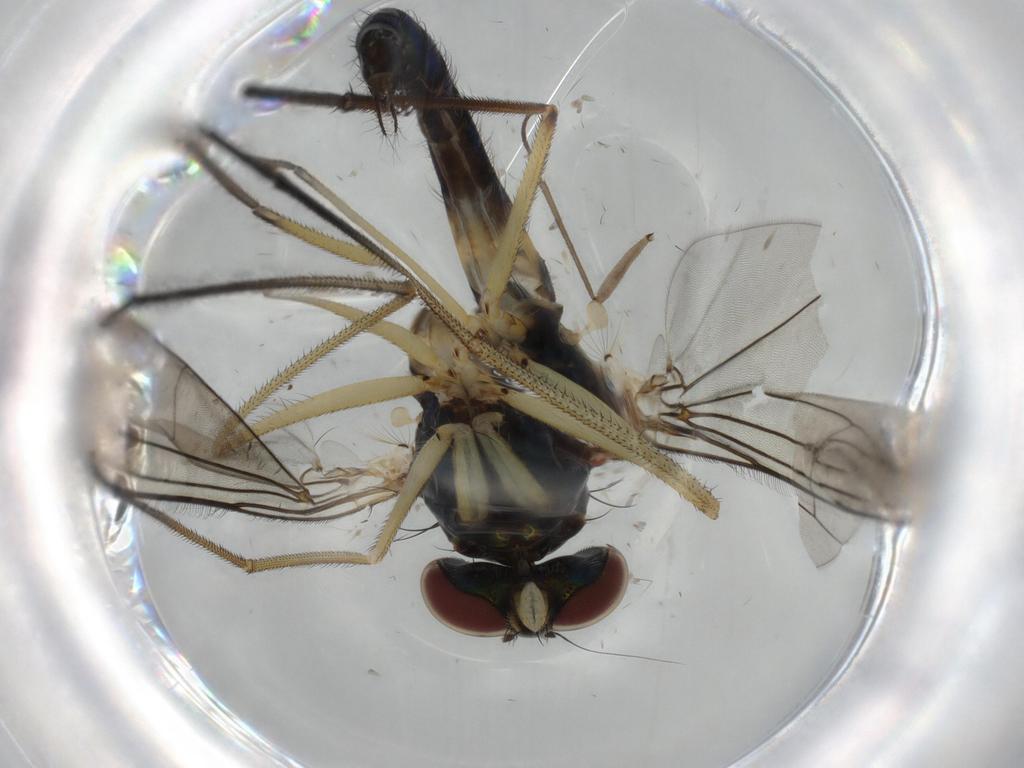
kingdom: Animalia
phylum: Arthropoda
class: Insecta
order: Diptera
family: Dolichopodidae
